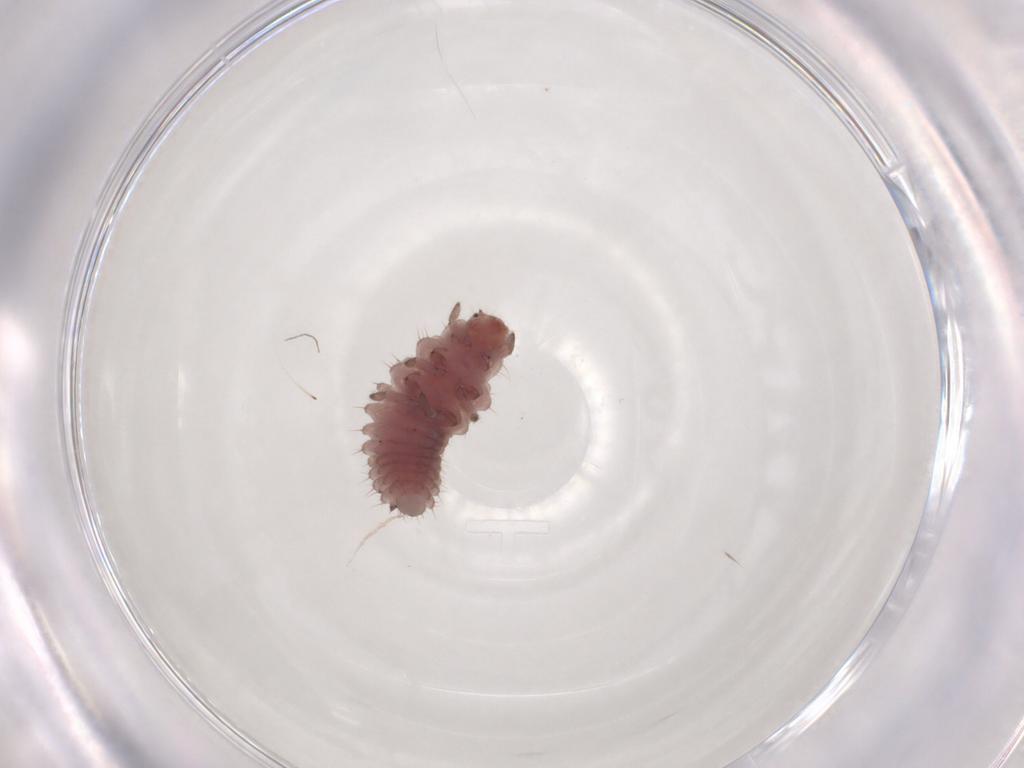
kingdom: Animalia
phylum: Arthropoda
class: Insecta
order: Coleoptera
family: Coccinellidae
